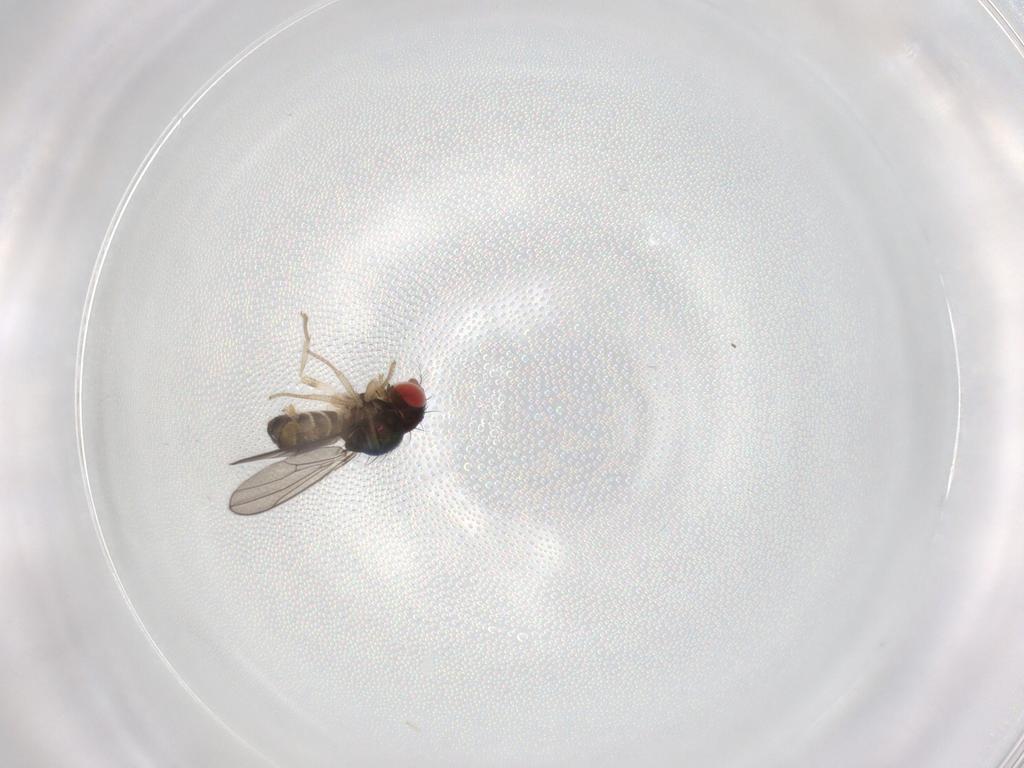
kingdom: Animalia
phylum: Arthropoda
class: Insecta
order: Diptera
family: Drosophilidae
